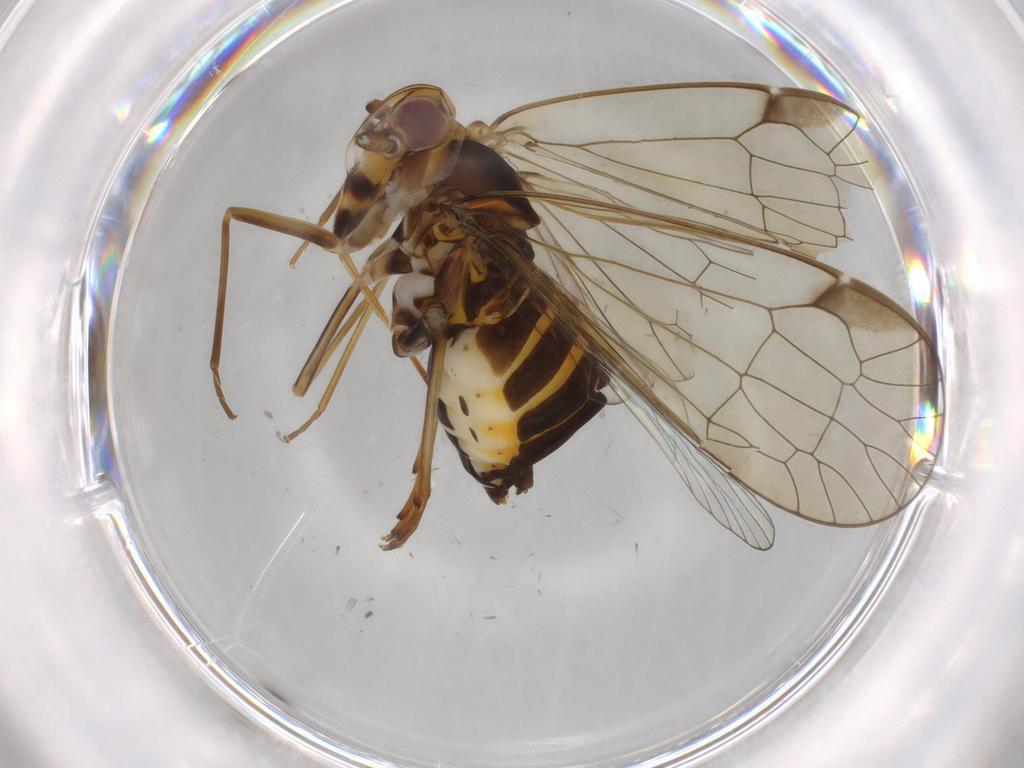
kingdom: Animalia
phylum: Arthropoda
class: Insecta
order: Hemiptera
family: Kinnaridae
